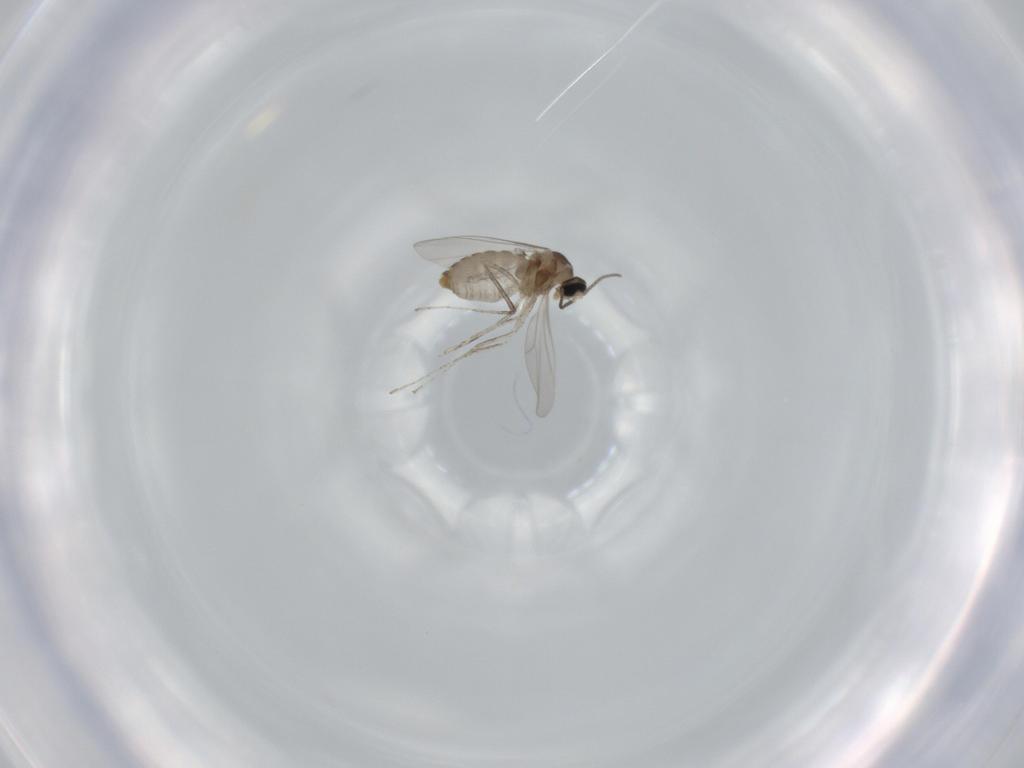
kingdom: Animalia
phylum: Arthropoda
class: Insecta
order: Diptera
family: Cecidomyiidae
